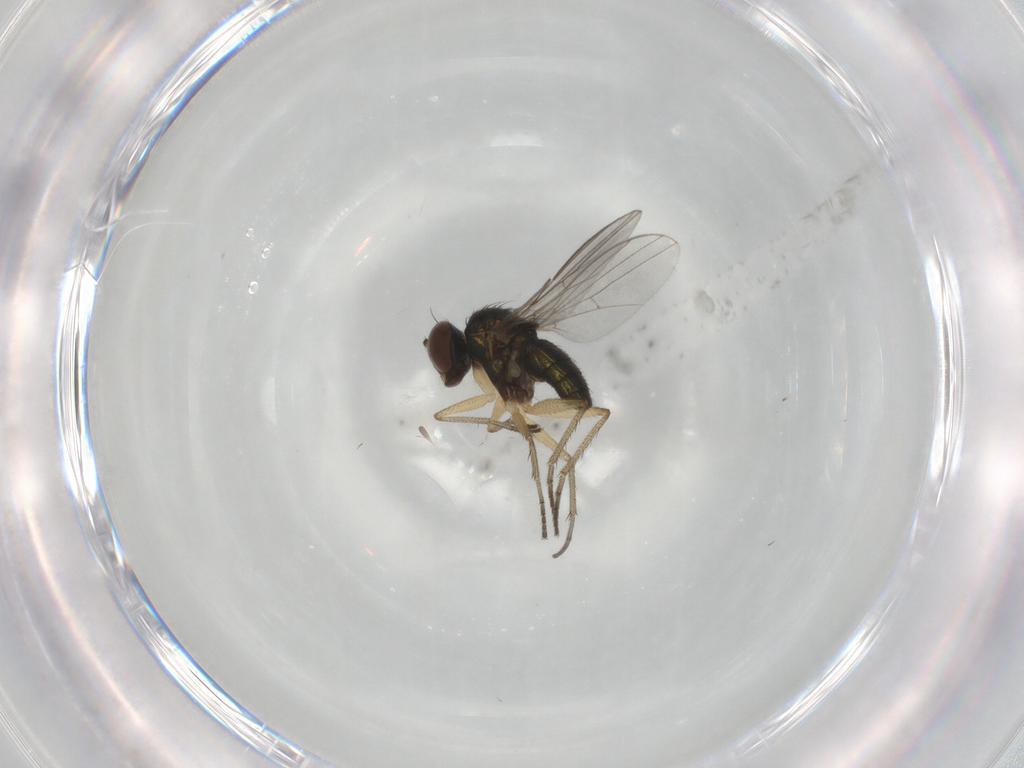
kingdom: Animalia
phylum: Arthropoda
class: Insecta
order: Diptera
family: Dolichopodidae
